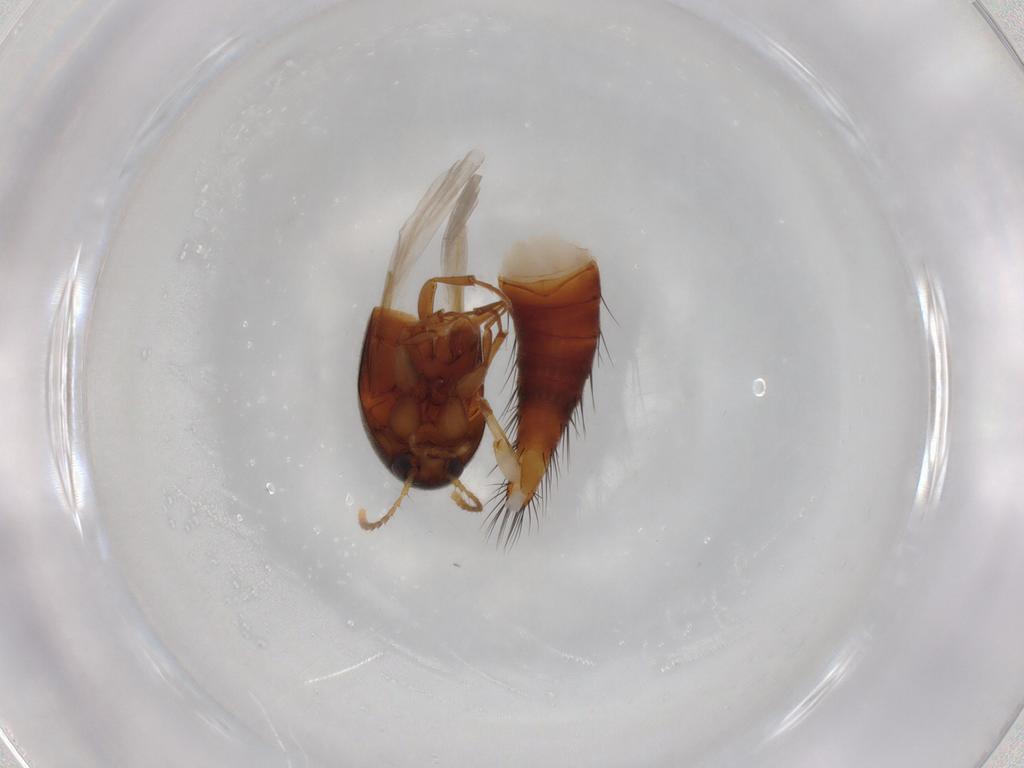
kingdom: Animalia
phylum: Arthropoda
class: Insecta
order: Coleoptera
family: Staphylinidae
